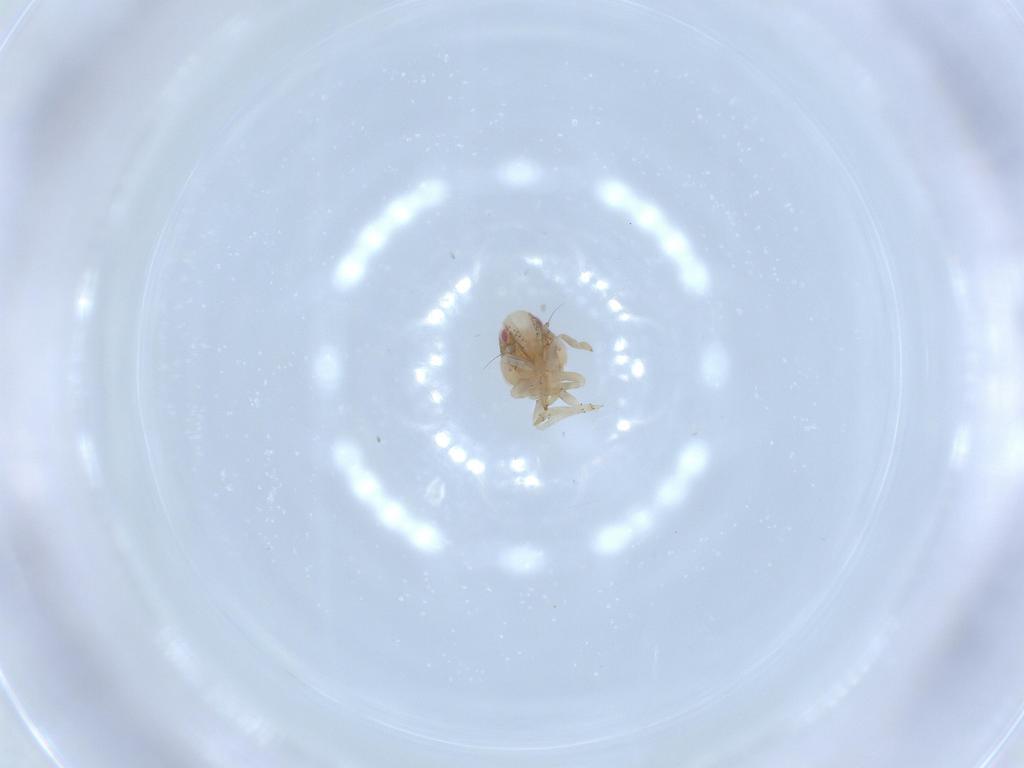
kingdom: Animalia
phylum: Arthropoda
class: Insecta
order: Hemiptera
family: Acanaloniidae
